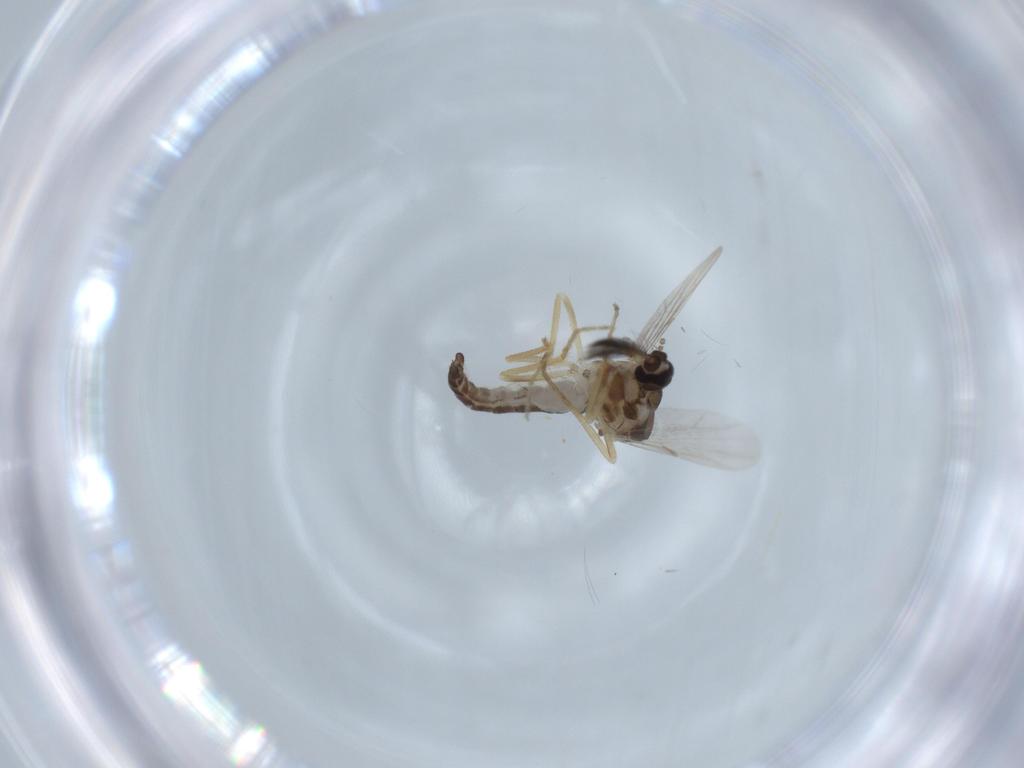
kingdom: Animalia
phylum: Arthropoda
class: Insecta
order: Diptera
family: Ceratopogonidae
